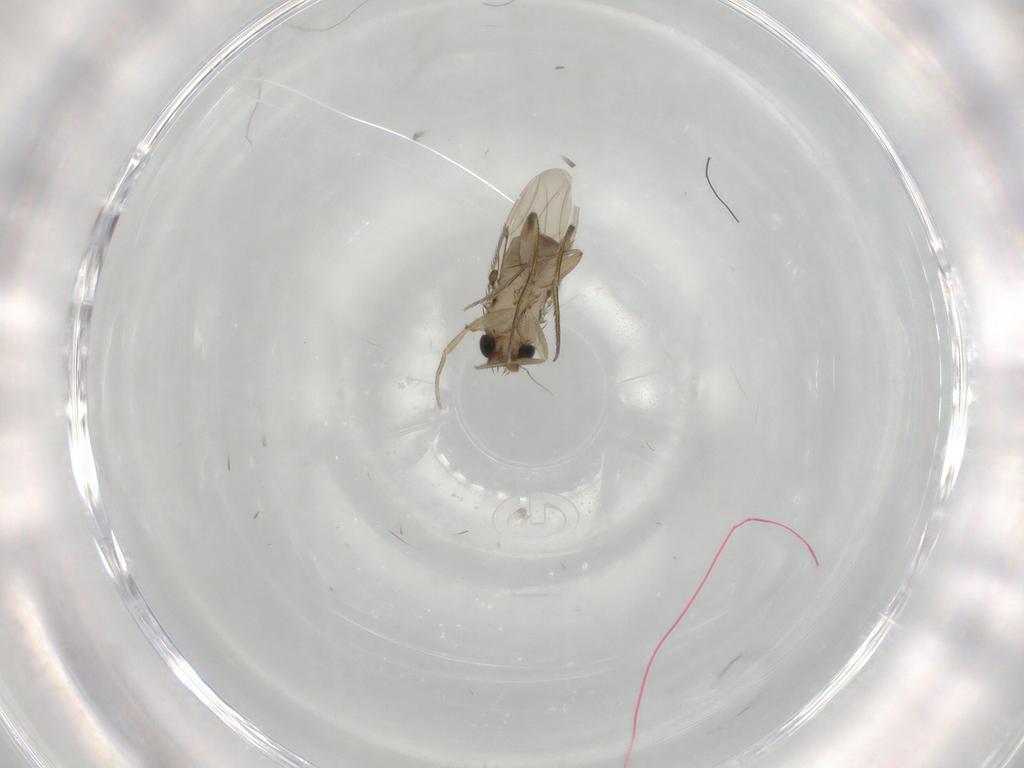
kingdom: Animalia
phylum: Arthropoda
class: Insecta
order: Diptera
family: Phoridae
